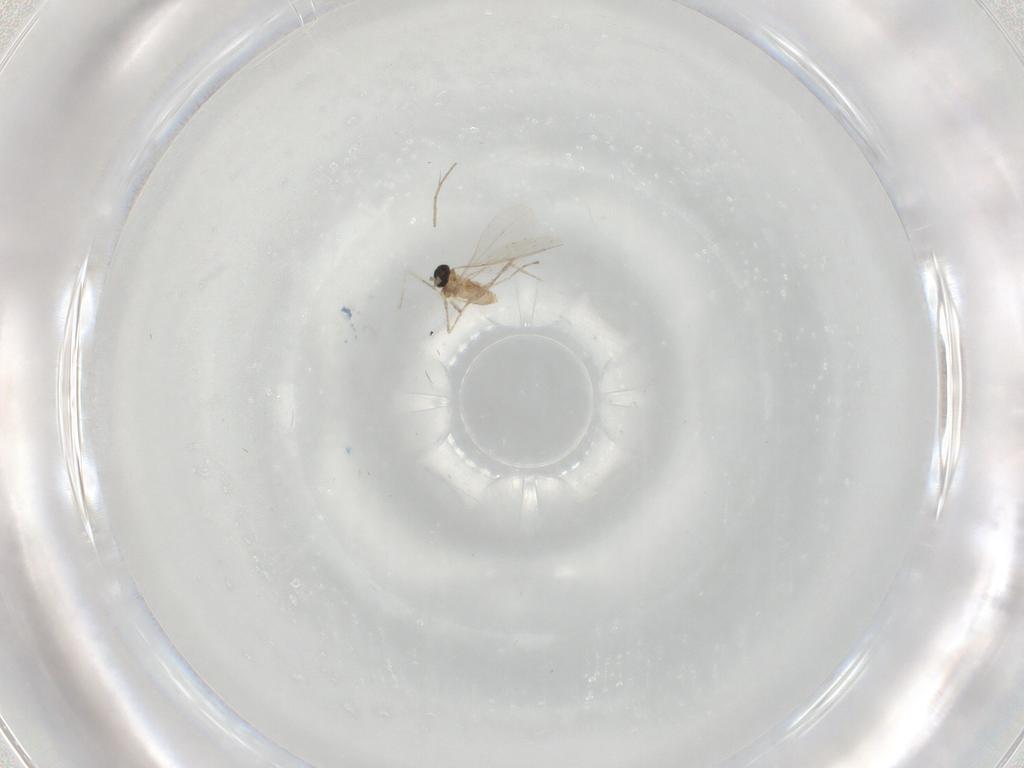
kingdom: Animalia
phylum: Arthropoda
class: Insecta
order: Diptera
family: Cecidomyiidae
